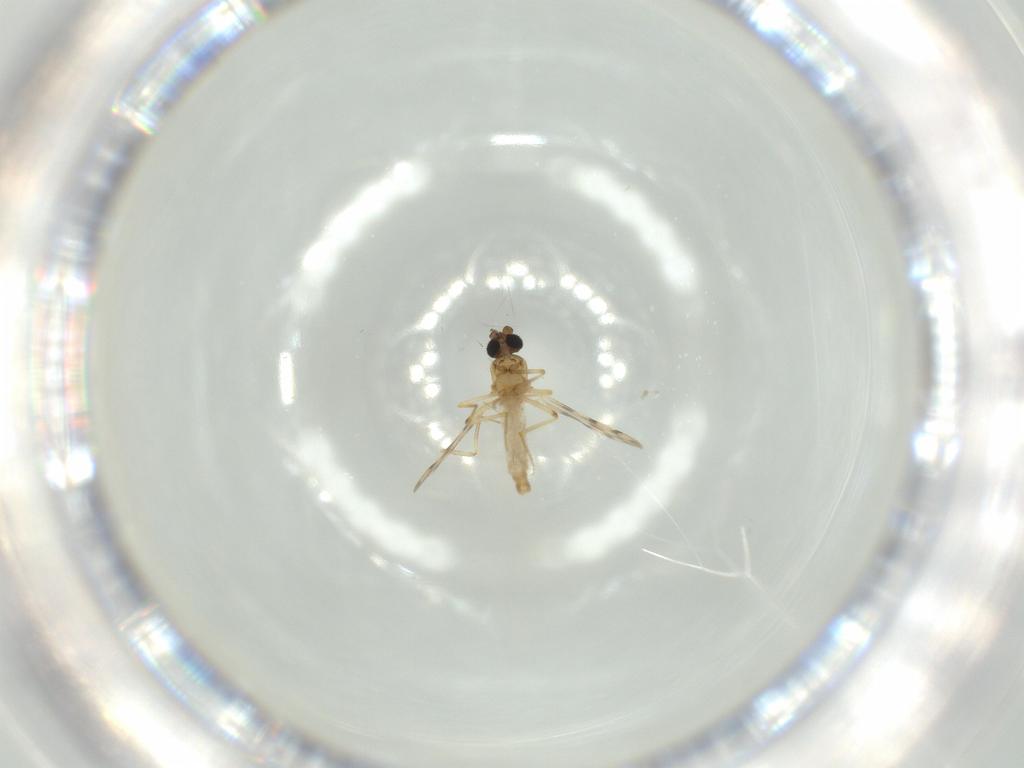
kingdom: Animalia
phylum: Arthropoda
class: Insecta
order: Diptera
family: Ceratopogonidae
